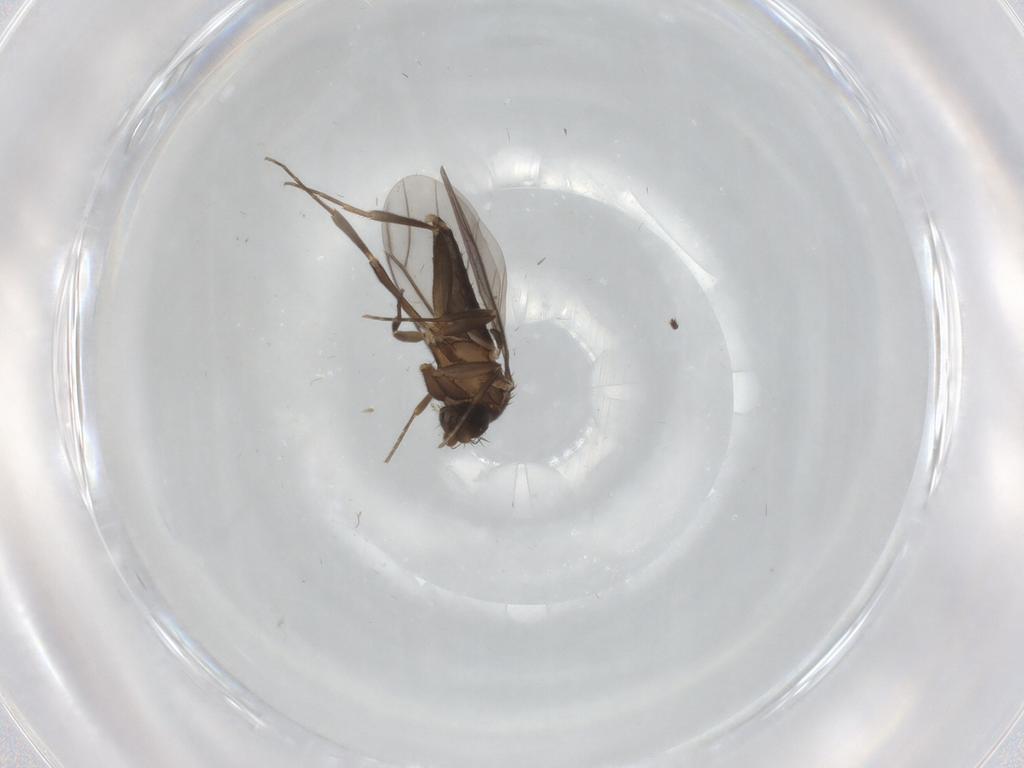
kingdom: Animalia
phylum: Arthropoda
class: Insecta
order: Diptera
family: Phoridae
